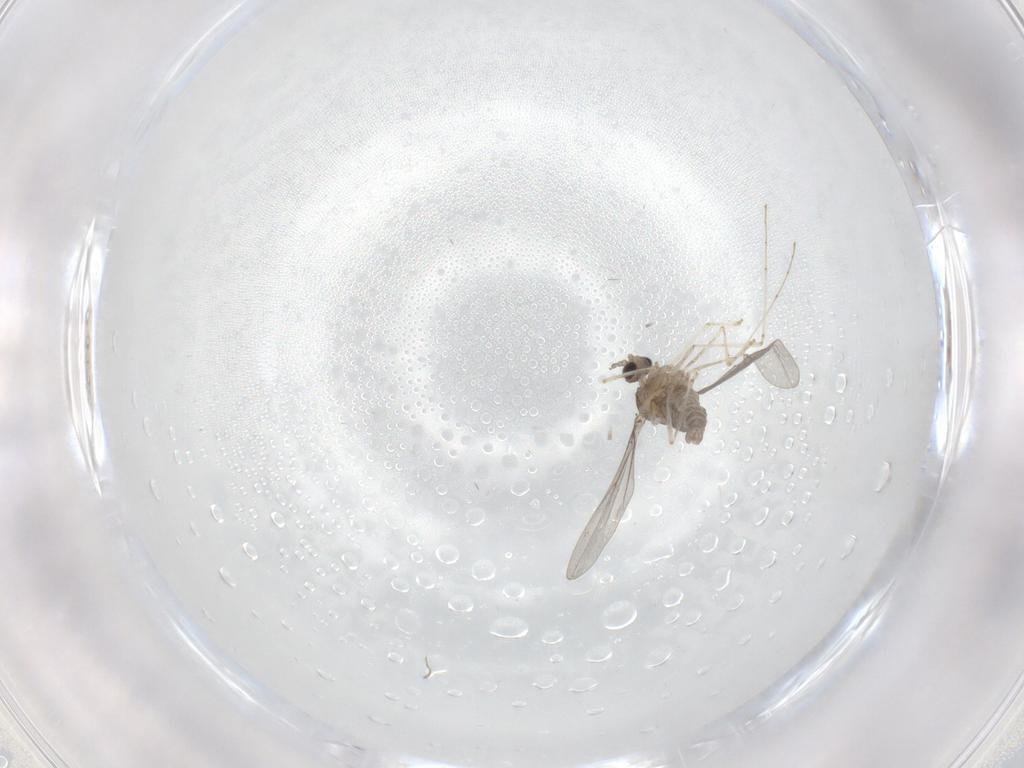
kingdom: Animalia
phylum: Arthropoda
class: Insecta
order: Diptera
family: Cecidomyiidae
